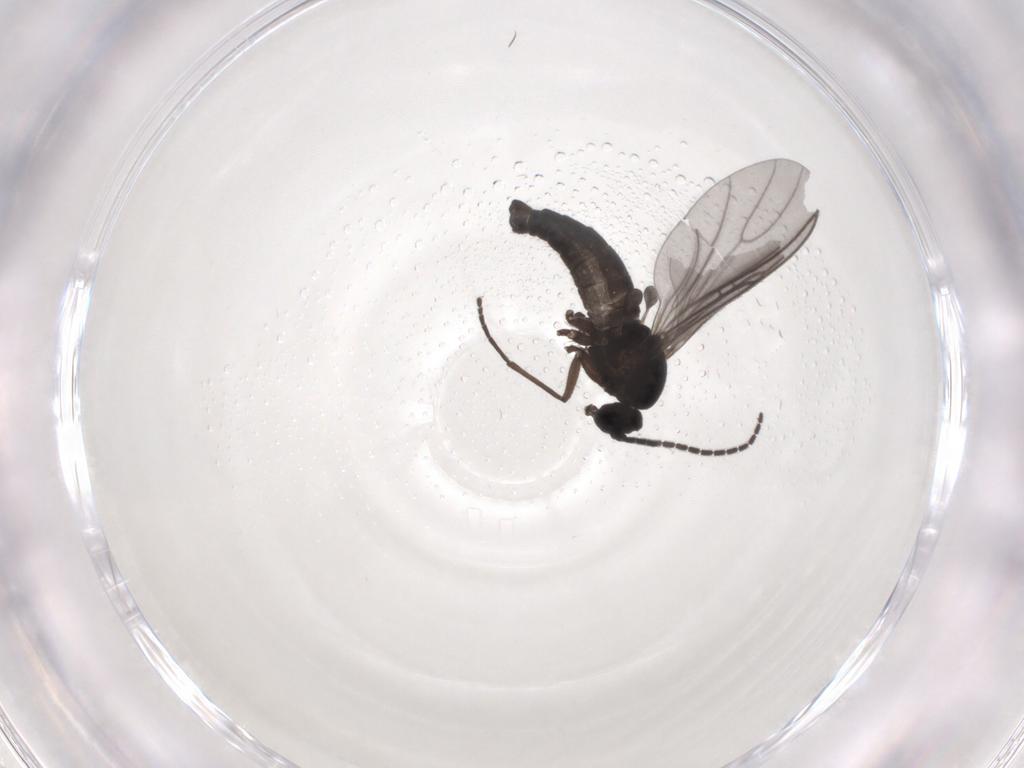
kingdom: Animalia
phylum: Arthropoda
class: Insecta
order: Diptera
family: Sciaridae
